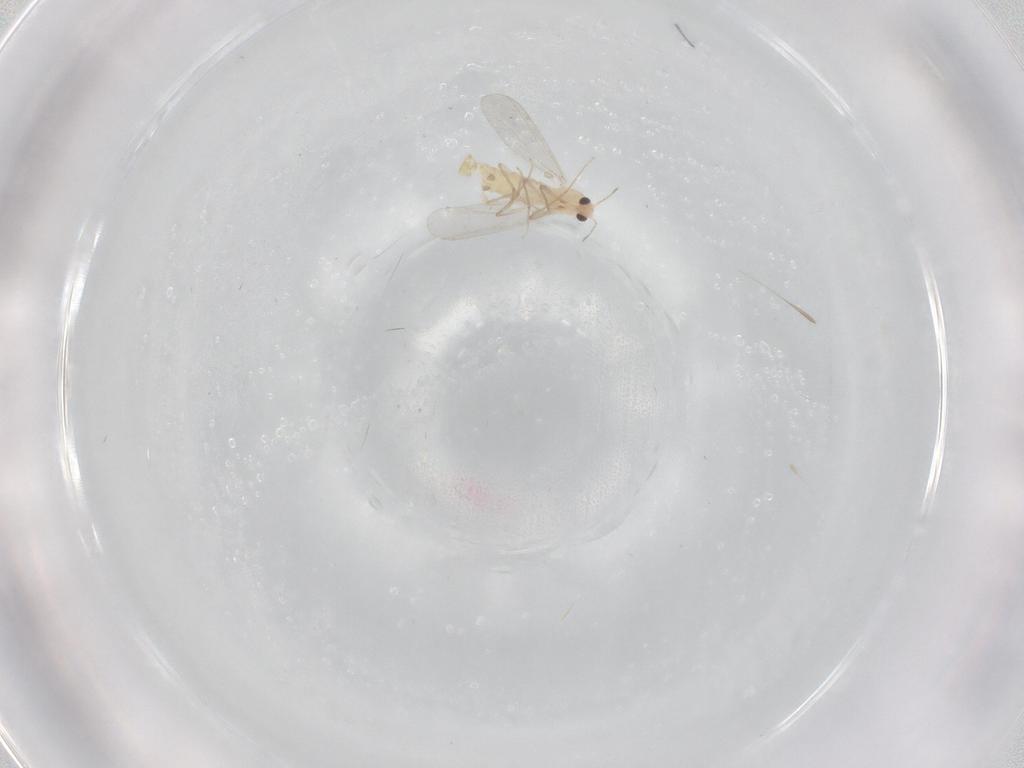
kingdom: Animalia
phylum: Arthropoda
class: Insecta
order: Diptera
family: Chironomidae
